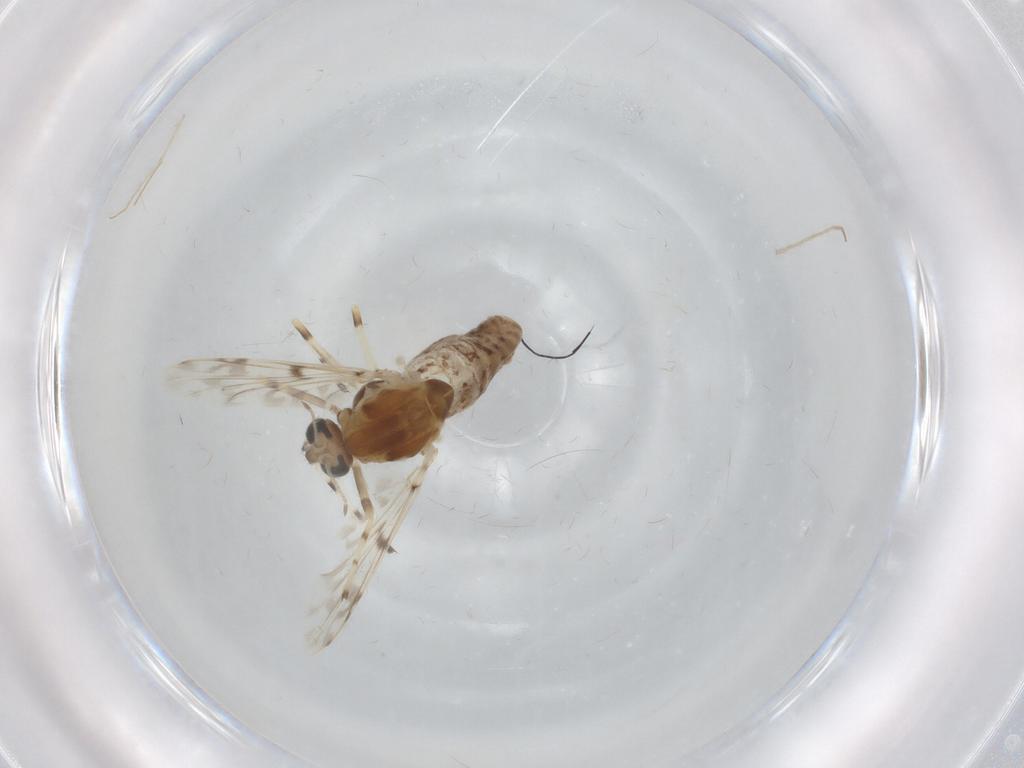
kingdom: Animalia
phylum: Arthropoda
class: Insecta
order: Diptera
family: Chironomidae
